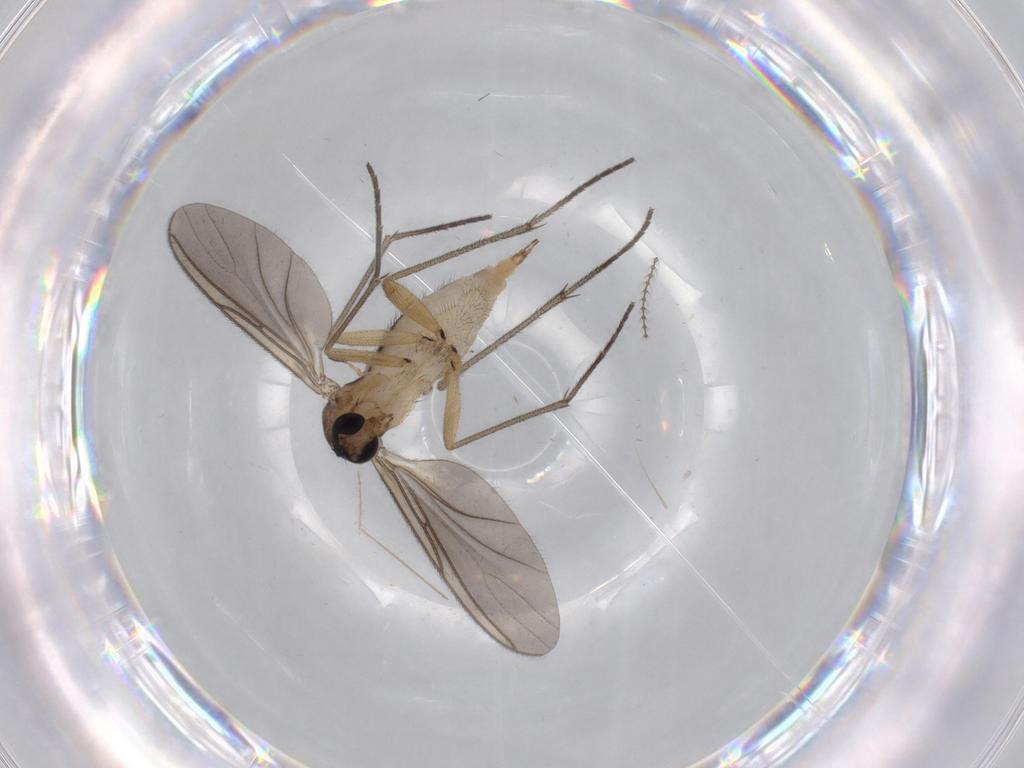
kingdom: Animalia
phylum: Arthropoda
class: Insecta
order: Diptera
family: Sciaridae
